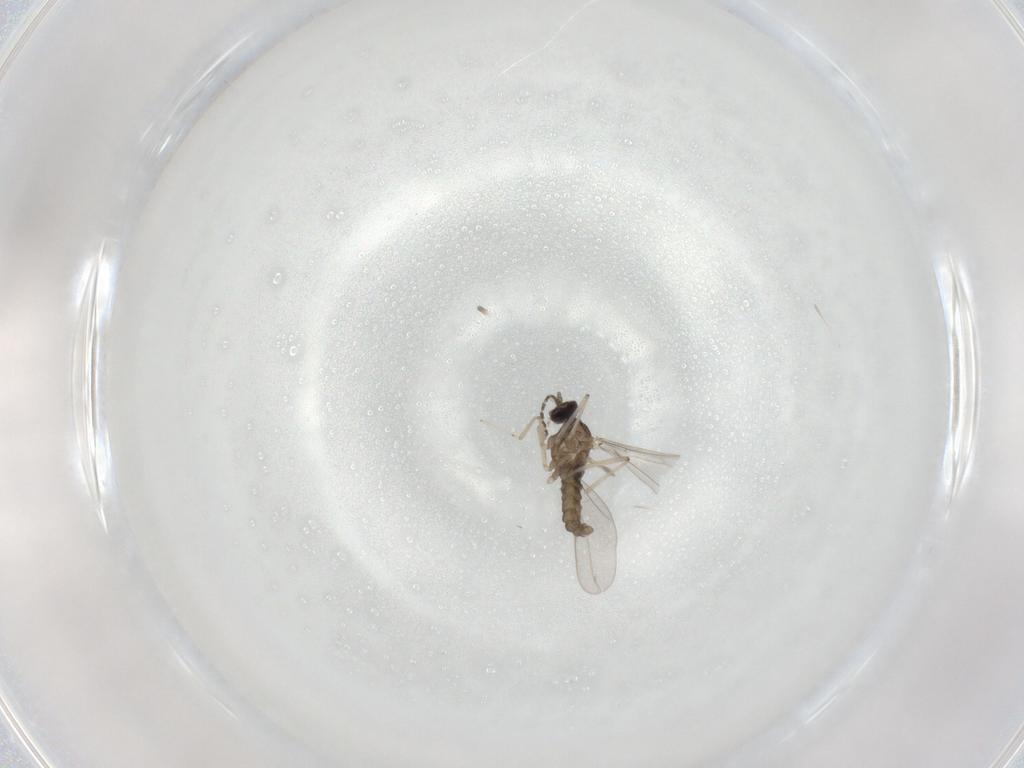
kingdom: Animalia
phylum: Arthropoda
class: Insecta
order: Diptera
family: Cecidomyiidae
